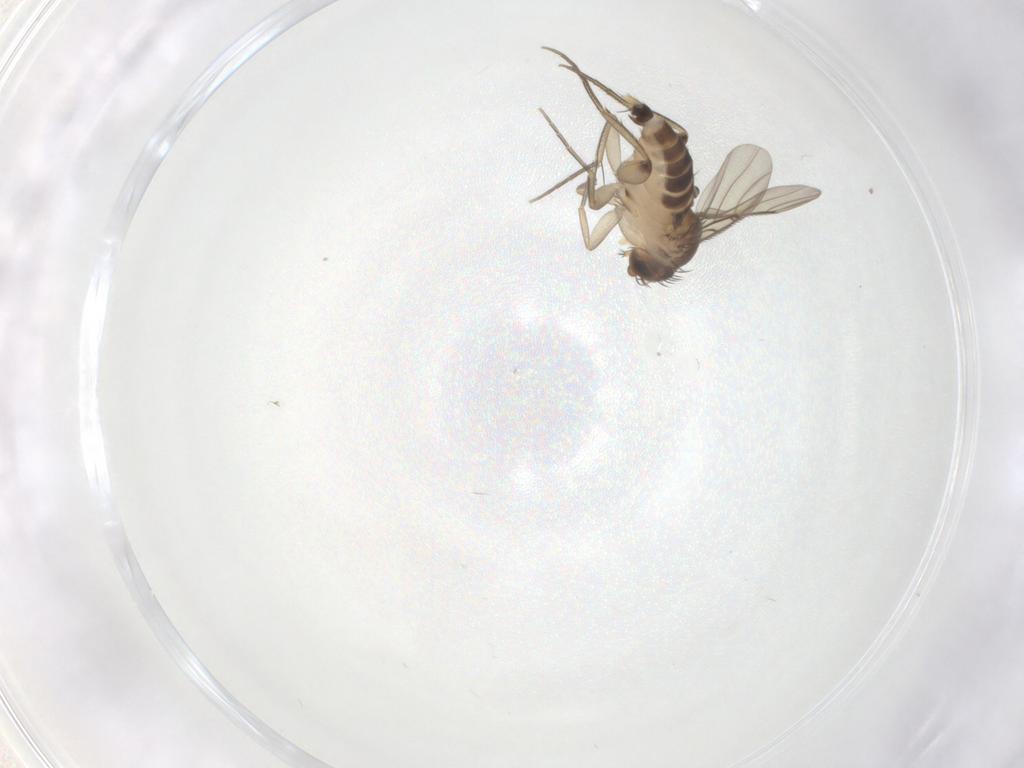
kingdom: Animalia
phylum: Arthropoda
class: Insecta
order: Diptera
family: Phoridae
